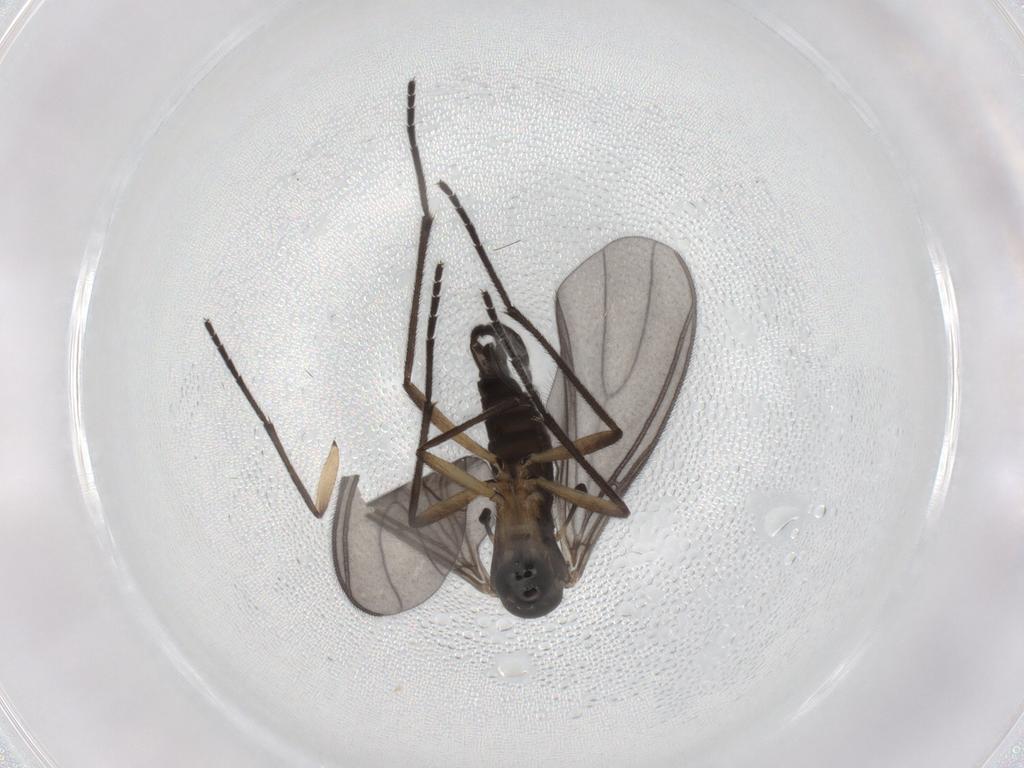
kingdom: Animalia
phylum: Arthropoda
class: Insecta
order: Diptera
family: Sciaridae
